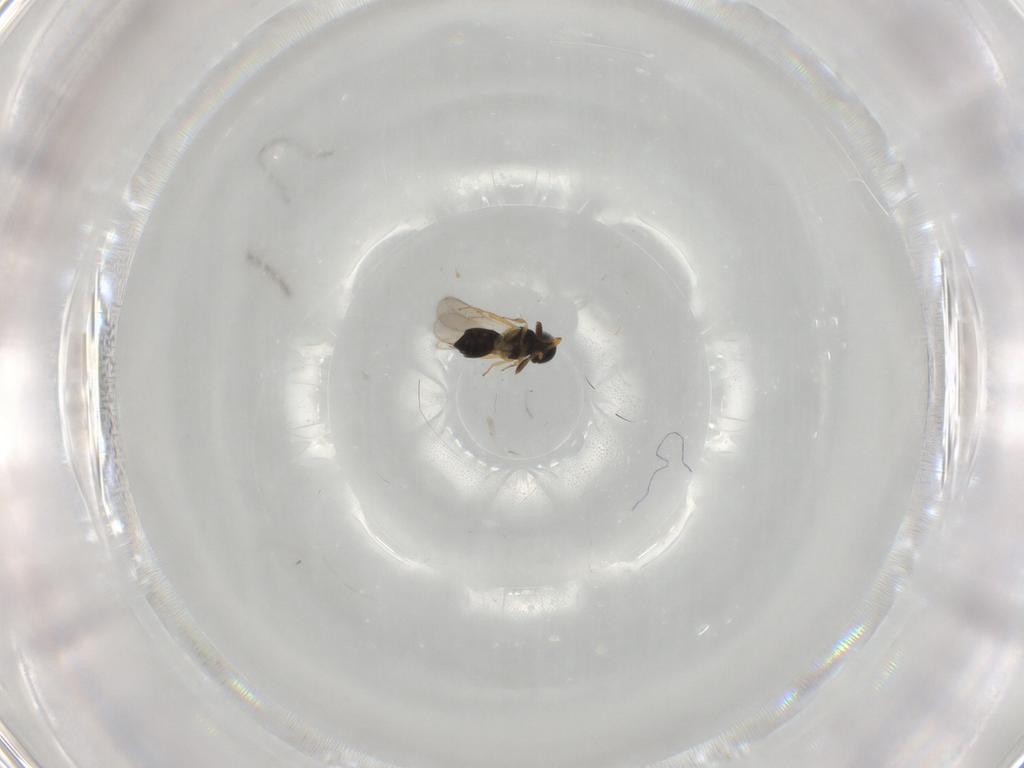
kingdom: Animalia
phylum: Arthropoda
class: Insecta
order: Hymenoptera
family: Scelionidae
